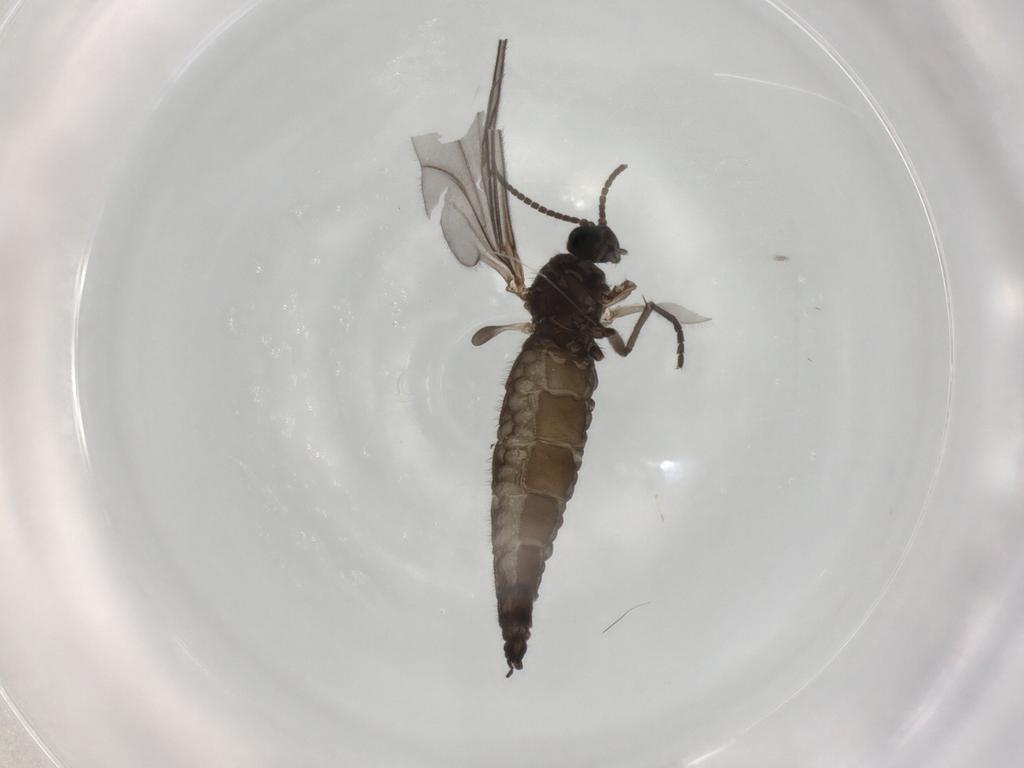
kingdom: Animalia
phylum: Arthropoda
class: Insecta
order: Diptera
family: Sciaridae
